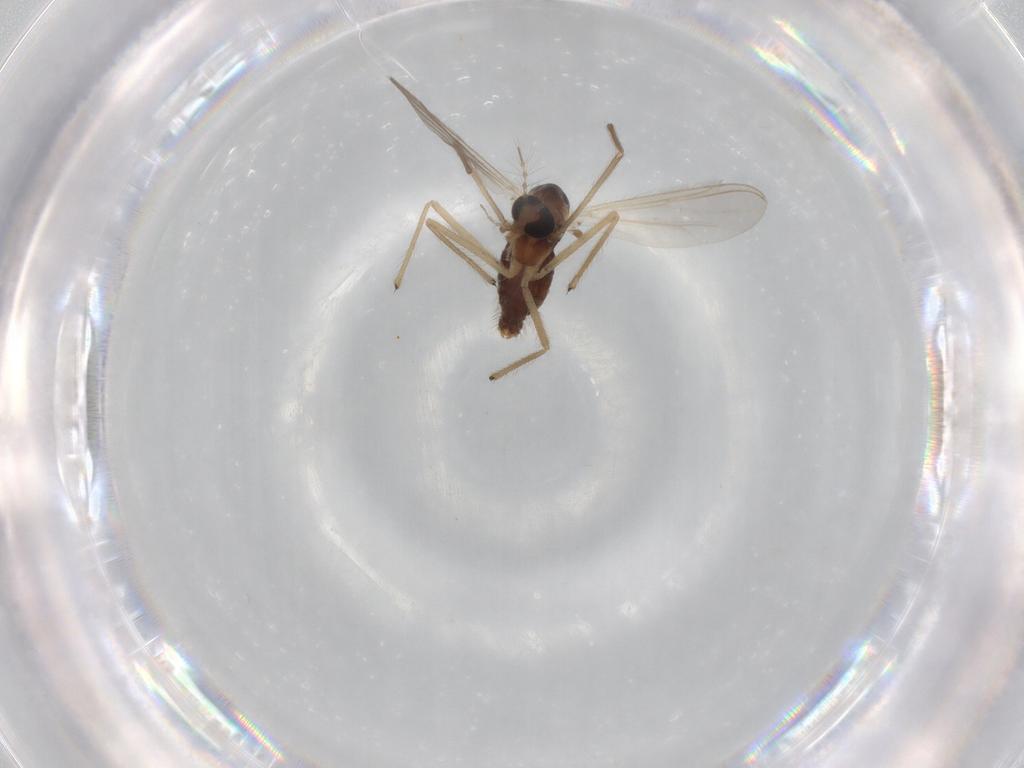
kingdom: Animalia
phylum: Arthropoda
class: Insecta
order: Diptera
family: Chironomidae
